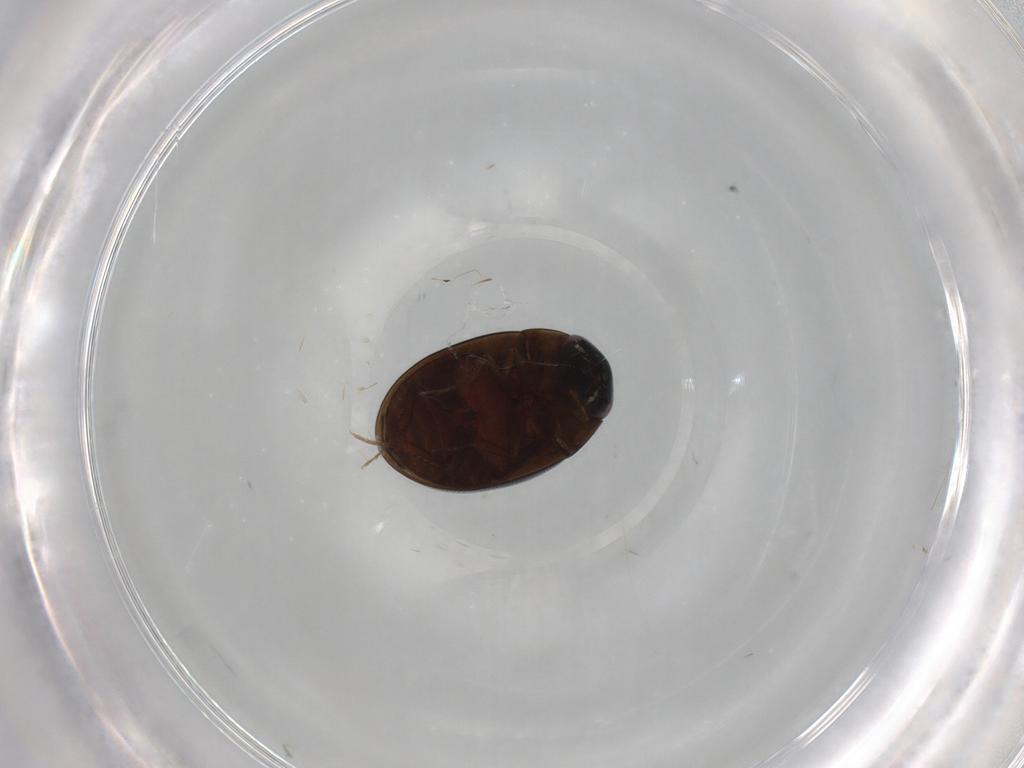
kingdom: Animalia
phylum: Arthropoda
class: Insecta
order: Coleoptera
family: Hydrophilidae
